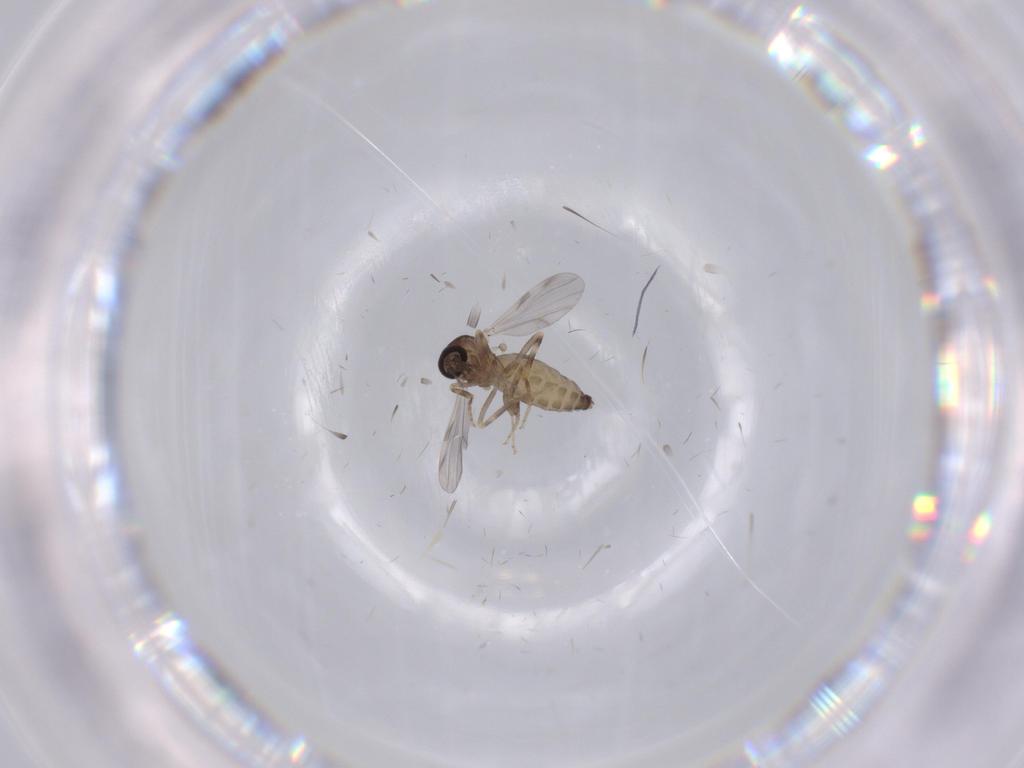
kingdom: Animalia
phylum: Arthropoda
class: Insecta
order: Diptera
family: Ceratopogonidae
